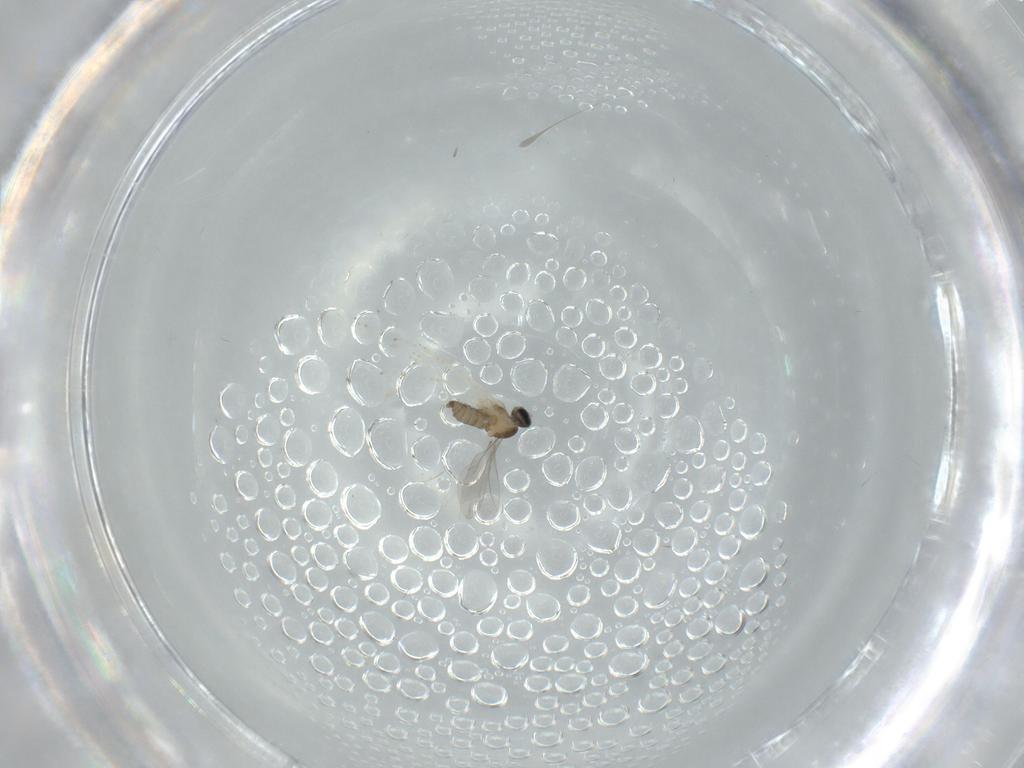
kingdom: Animalia
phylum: Arthropoda
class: Insecta
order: Diptera
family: Cecidomyiidae
